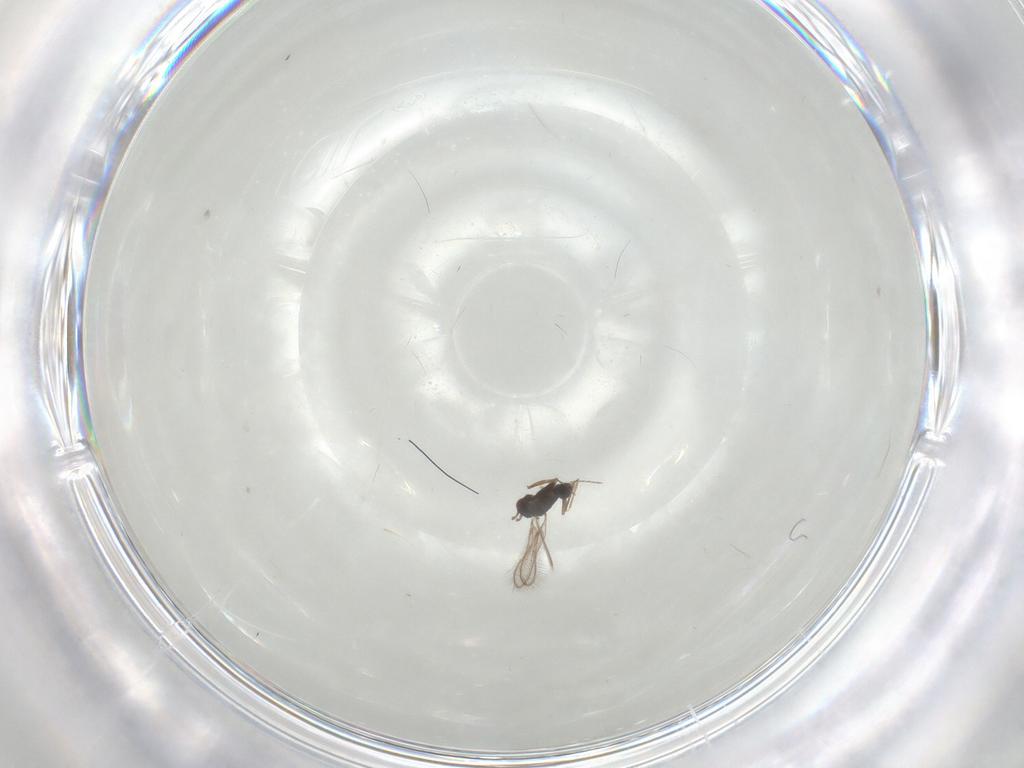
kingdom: Animalia
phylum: Arthropoda
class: Insecta
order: Hymenoptera
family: Mymaridae
